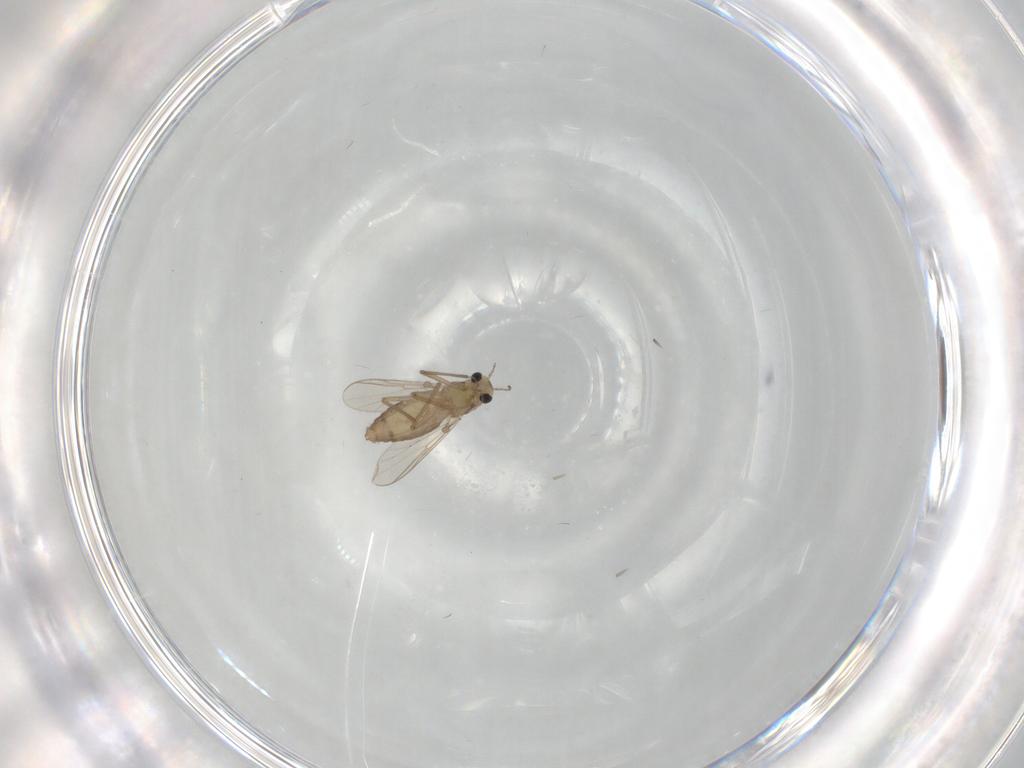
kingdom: Animalia
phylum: Arthropoda
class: Insecta
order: Diptera
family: Chironomidae
